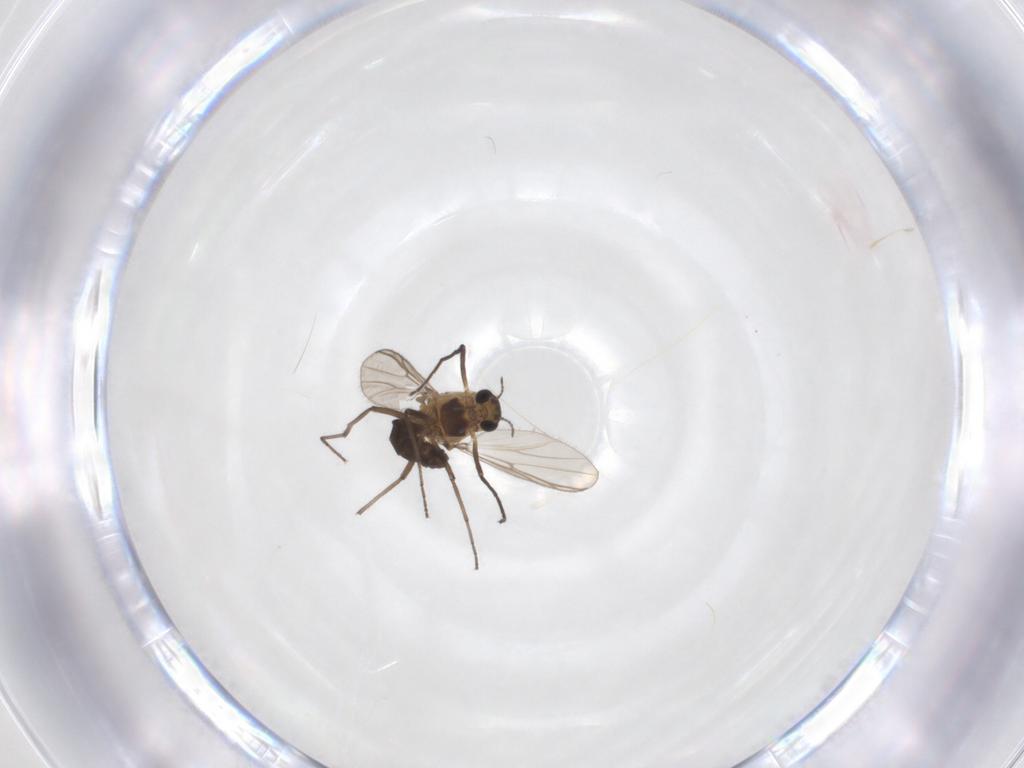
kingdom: Animalia
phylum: Arthropoda
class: Insecta
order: Diptera
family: Chironomidae
